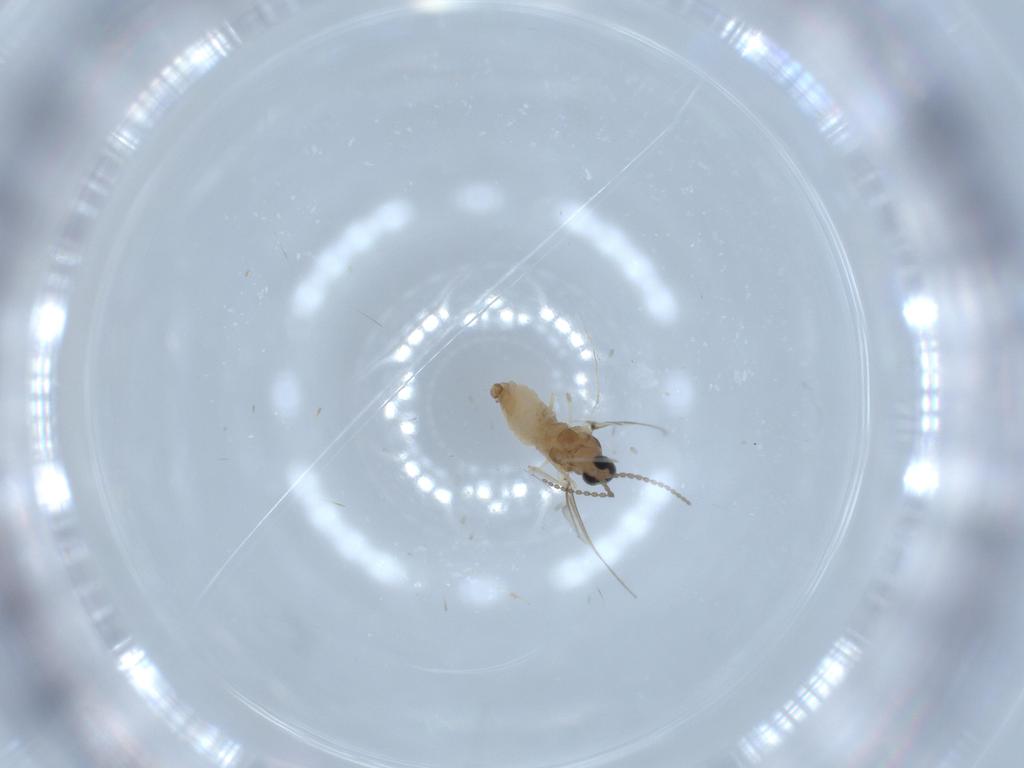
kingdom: Animalia
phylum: Arthropoda
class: Insecta
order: Diptera
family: Cecidomyiidae
